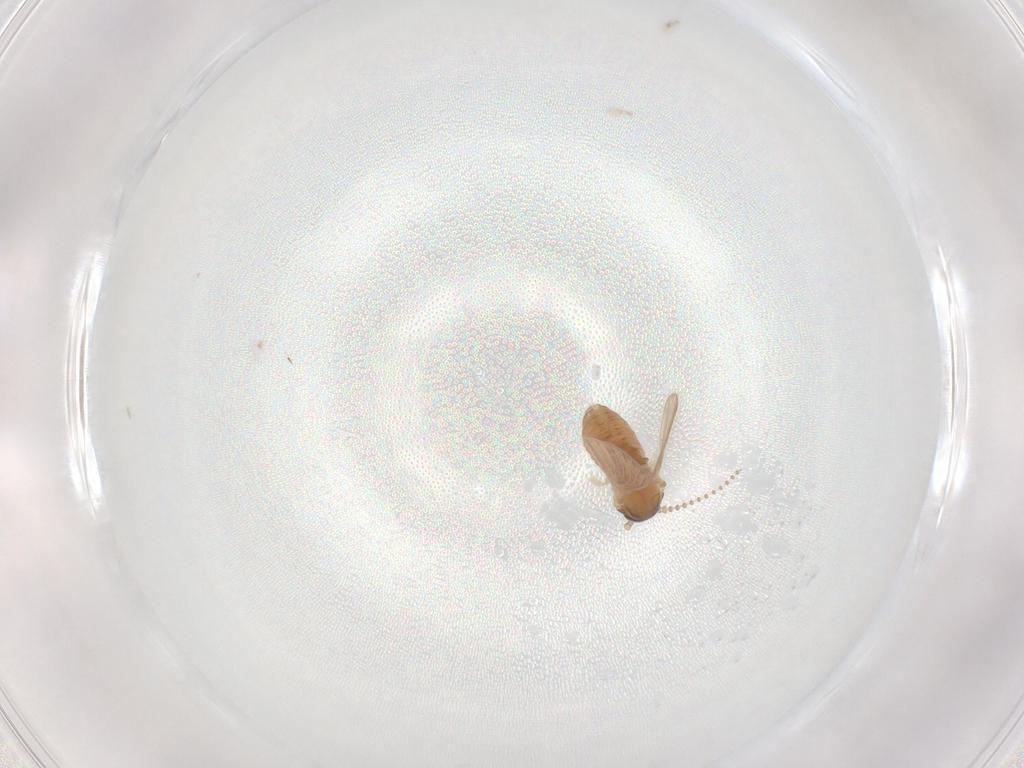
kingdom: Animalia
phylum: Arthropoda
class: Insecta
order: Diptera
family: Psychodidae
